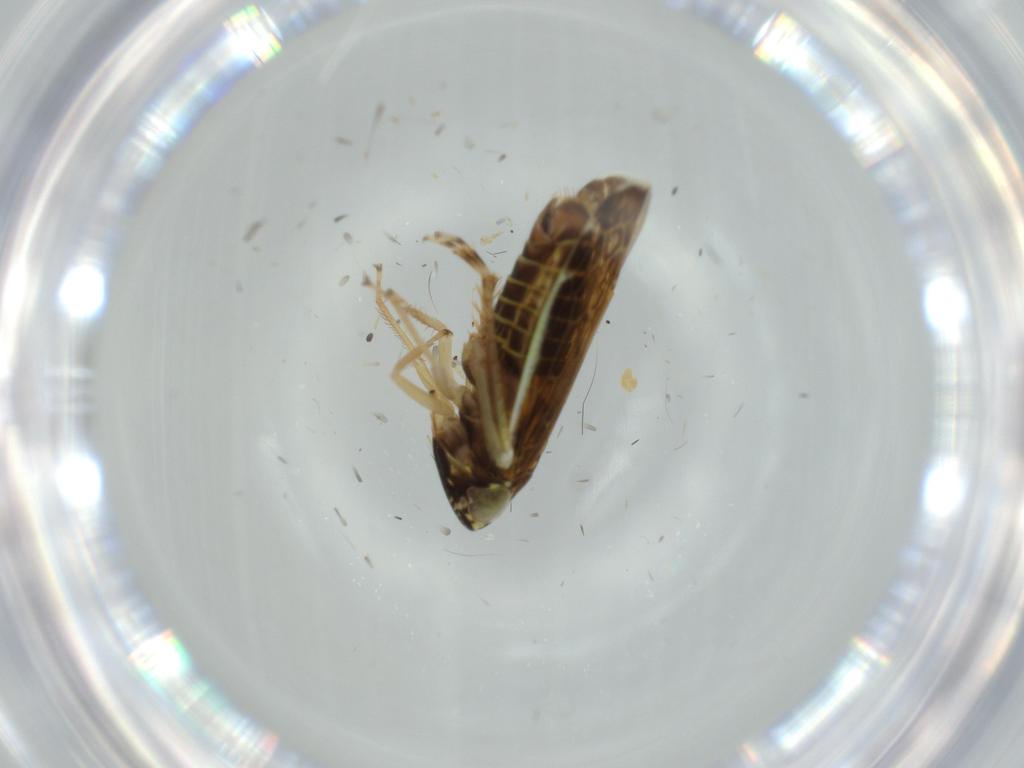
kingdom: Animalia
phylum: Arthropoda
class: Insecta
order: Hemiptera
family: Cicadellidae
